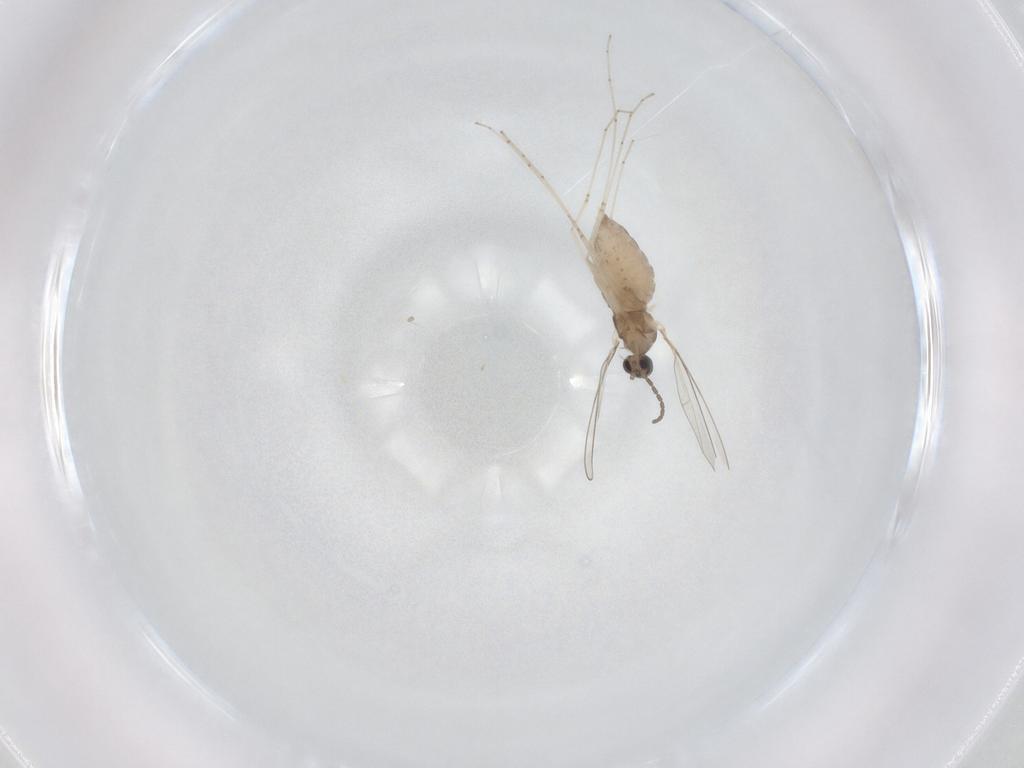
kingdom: Animalia
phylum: Arthropoda
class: Insecta
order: Diptera
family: Cecidomyiidae
